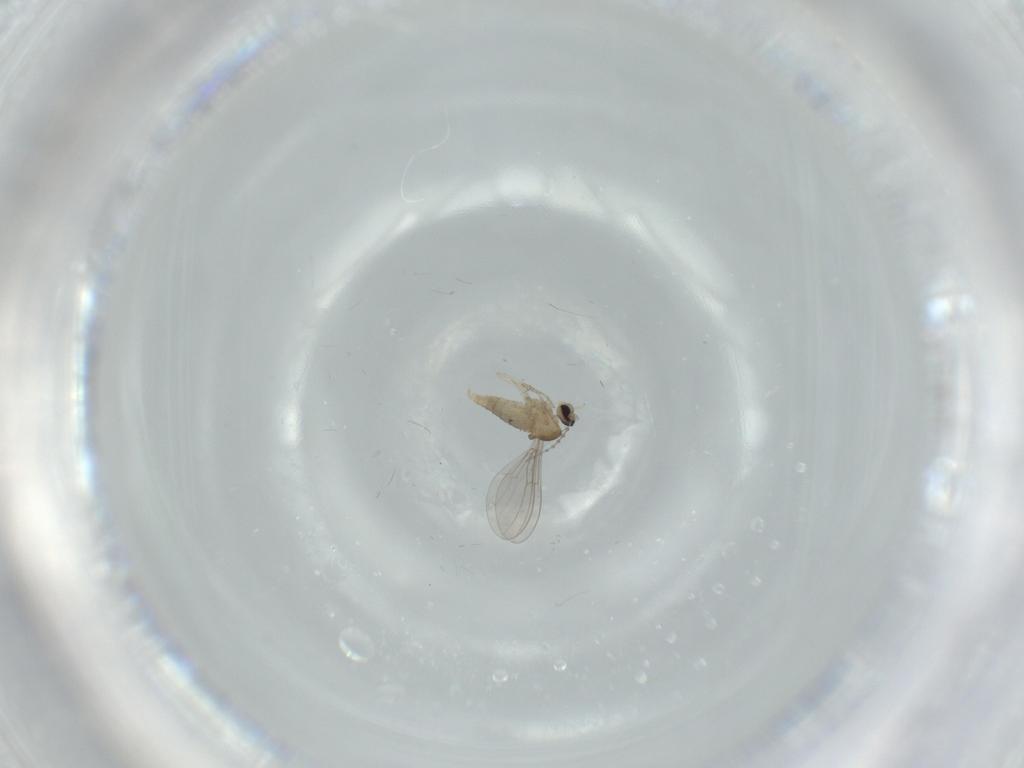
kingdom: Animalia
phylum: Arthropoda
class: Insecta
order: Diptera
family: Cecidomyiidae
